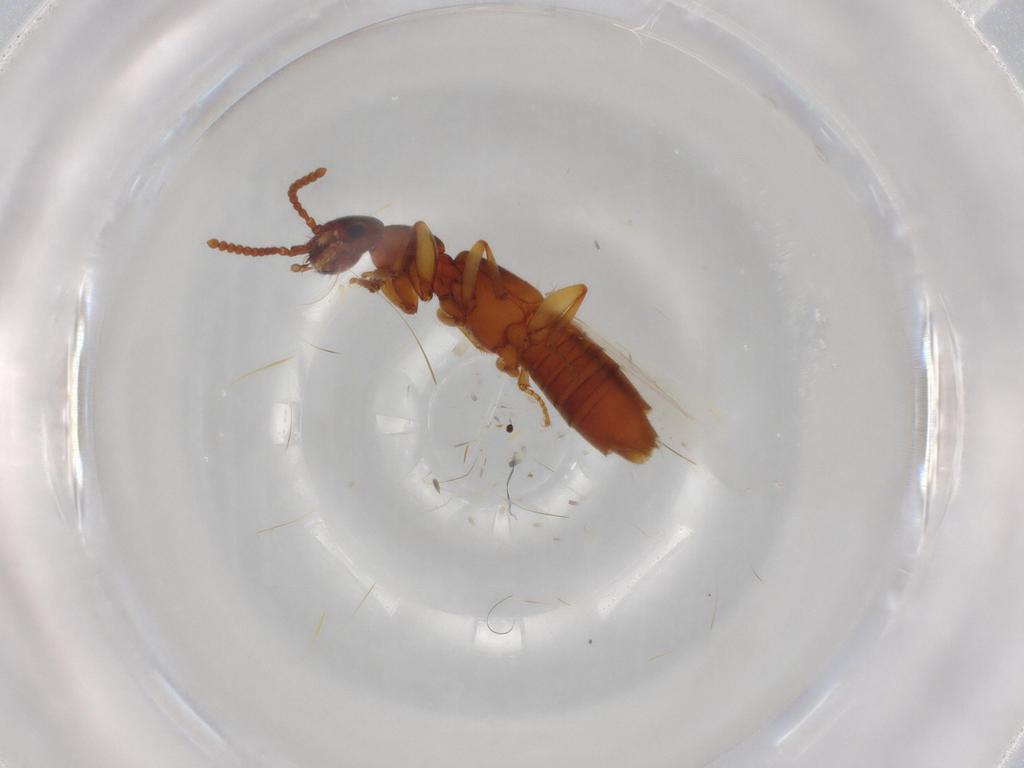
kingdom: Animalia
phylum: Arthropoda
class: Insecta
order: Coleoptera
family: Staphylinidae
